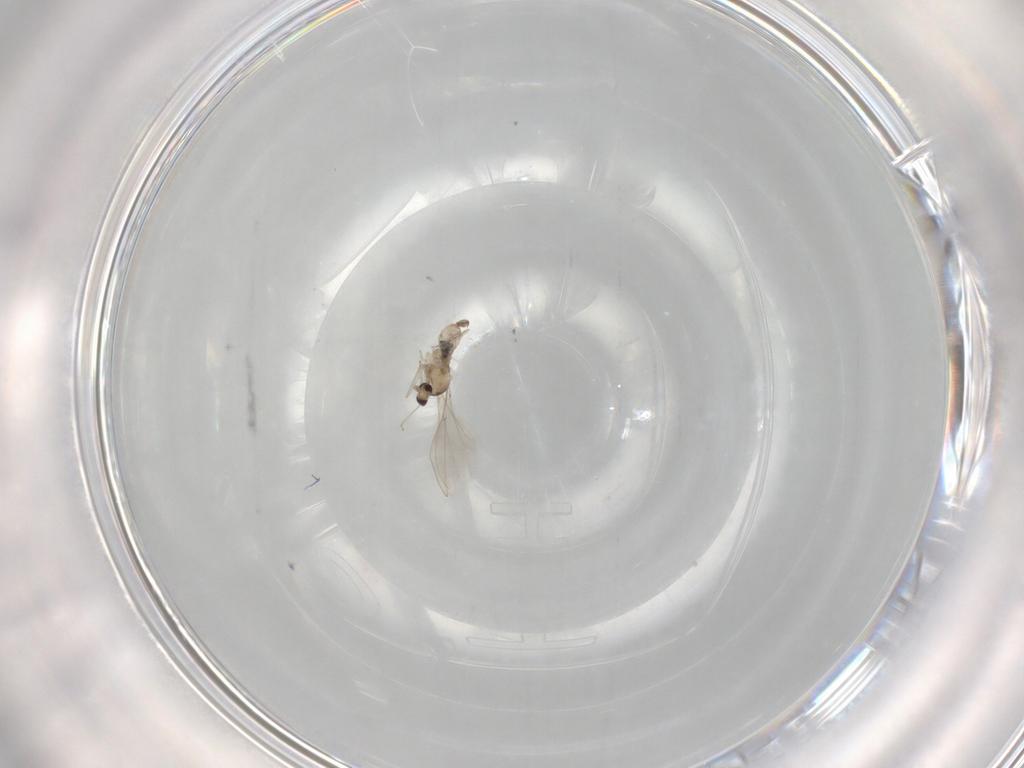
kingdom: Animalia
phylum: Arthropoda
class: Insecta
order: Diptera
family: Cecidomyiidae
